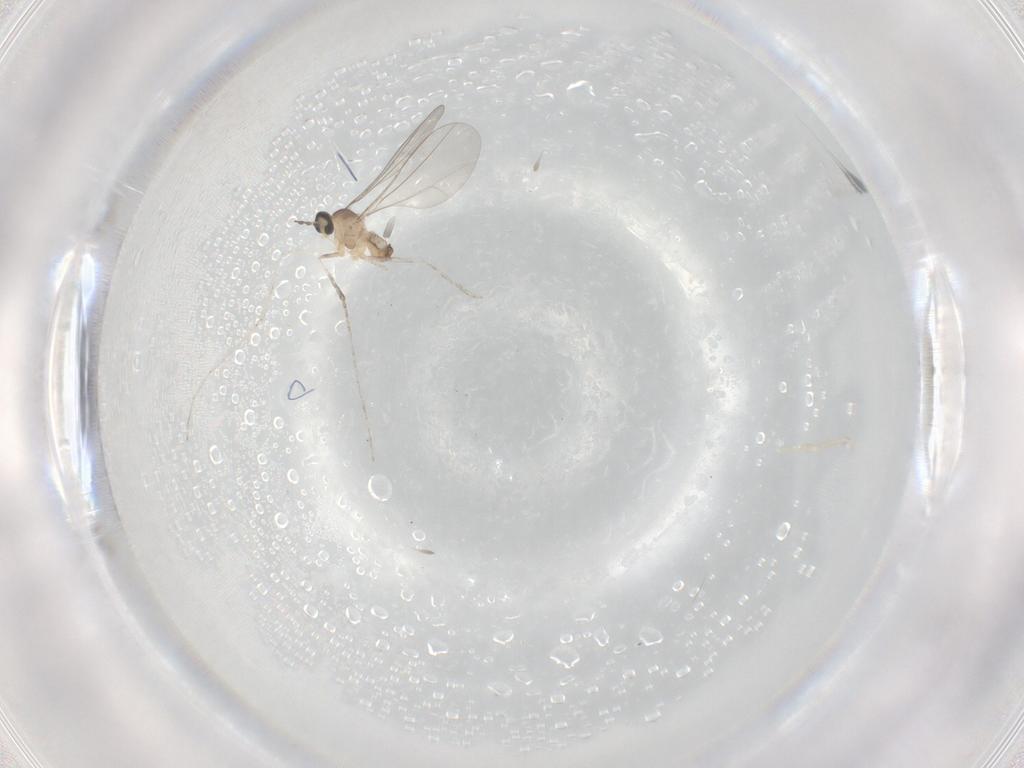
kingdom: Animalia
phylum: Arthropoda
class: Insecta
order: Diptera
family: Cecidomyiidae
